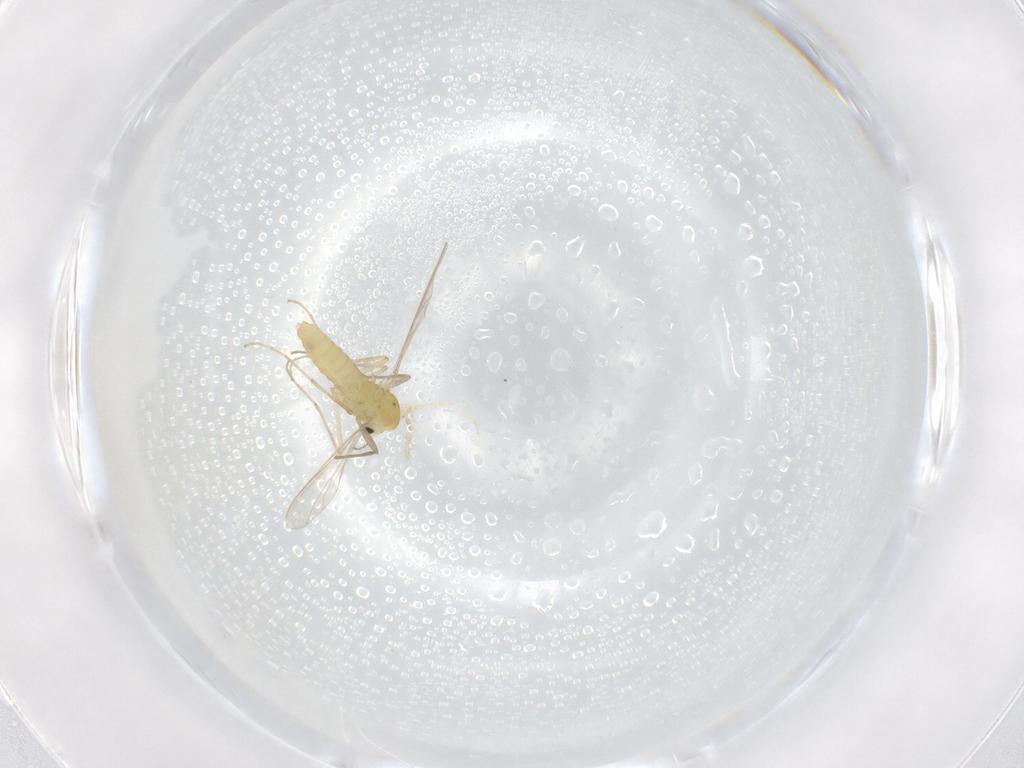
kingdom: Animalia
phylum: Arthropoda
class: Insecta
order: Diptera
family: Chironomidae
